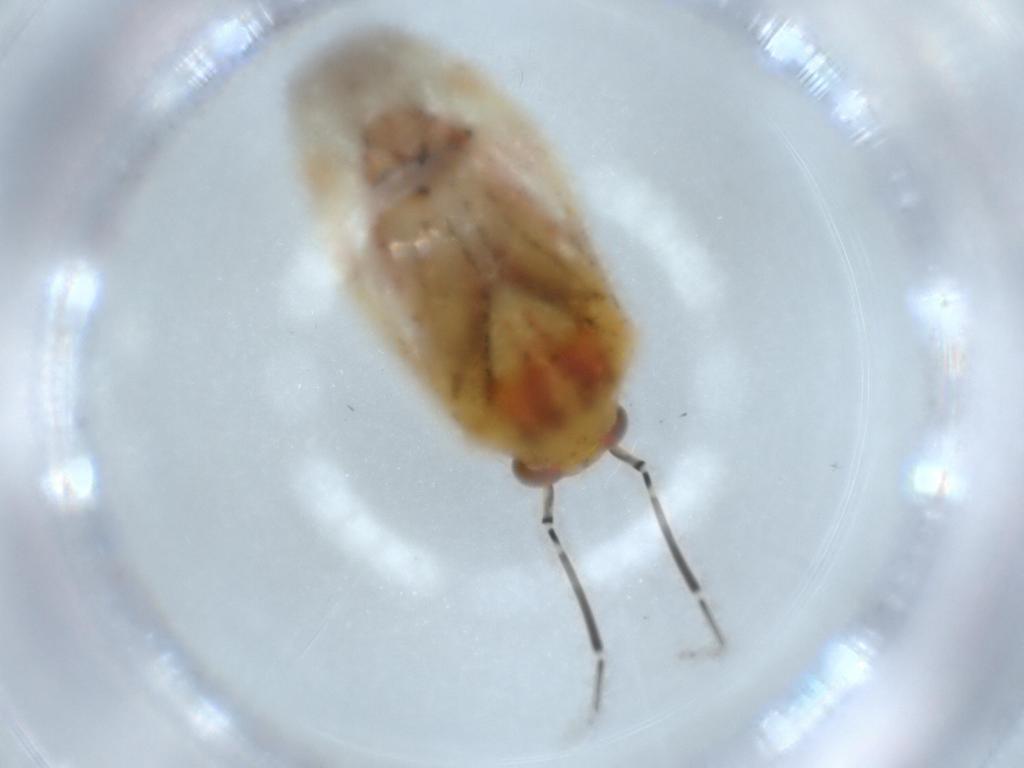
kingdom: Animalia
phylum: Arthropoda
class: Insecta
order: Hemiptera
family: Miridae
